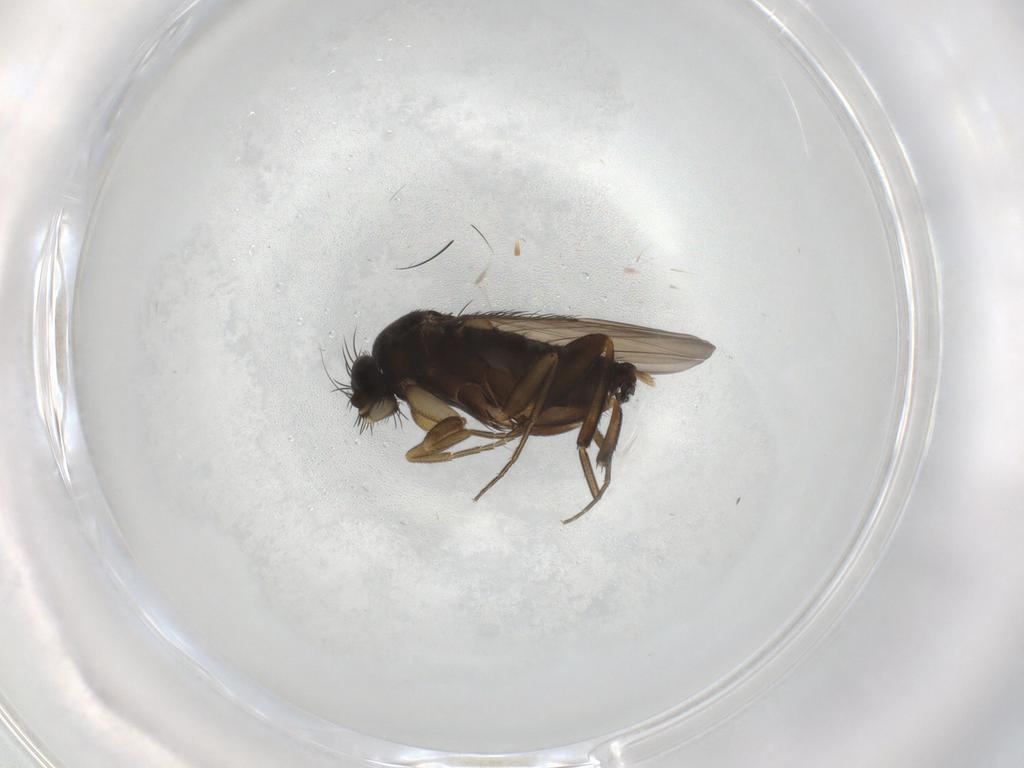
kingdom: Animalia
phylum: Arthropoda
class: Insecta
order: Diptera
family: Phoridae
